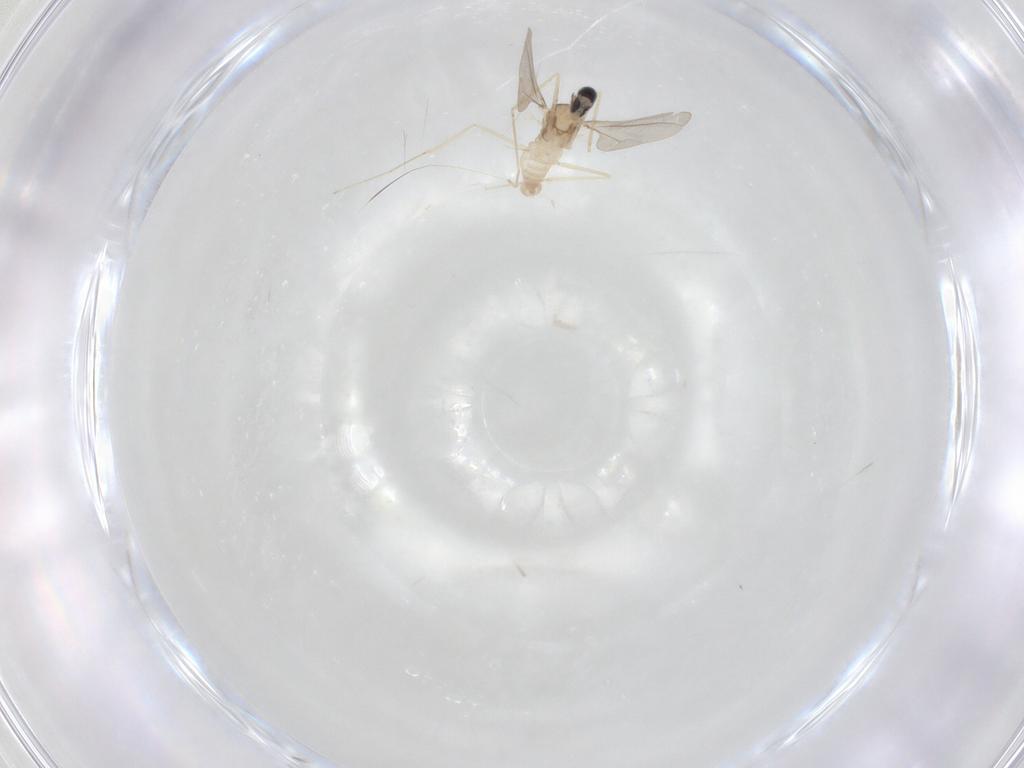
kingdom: Animalia
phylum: Arthropoda
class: Insecta
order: Diptera
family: Cecidomyiidae
